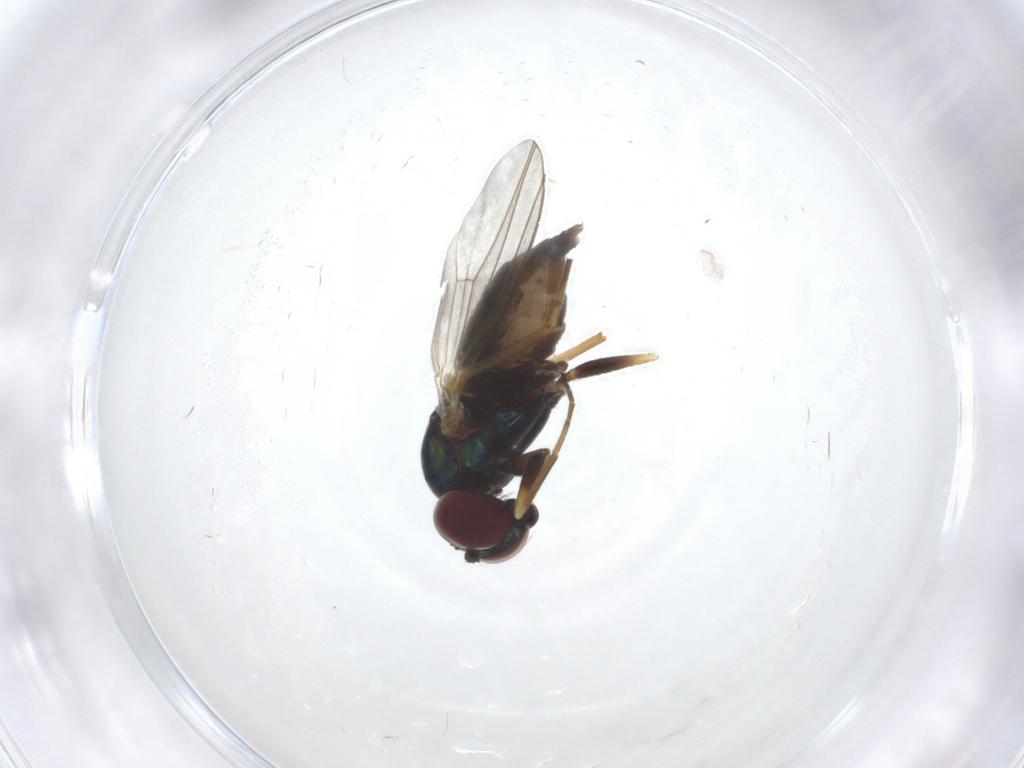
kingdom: Animalia
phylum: Arthropoda
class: Insecta
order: Diptera
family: Dolichopodidae
